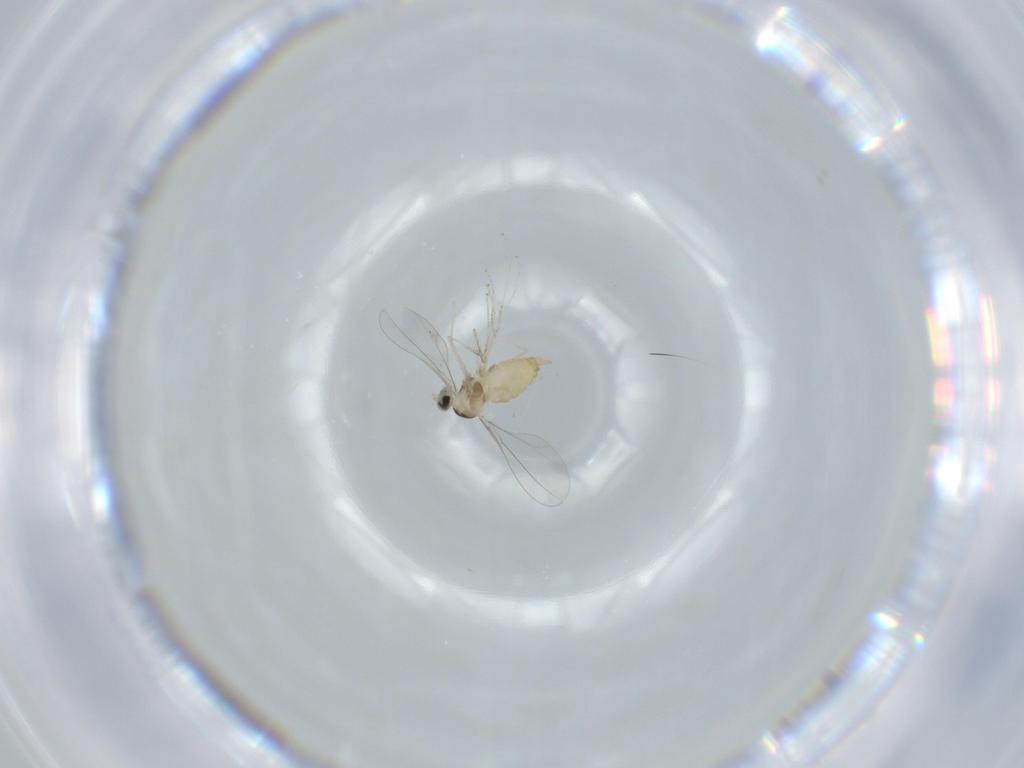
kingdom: Animalia
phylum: Arthropoda
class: Insecta
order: Diptera
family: Cecidomyiidae
